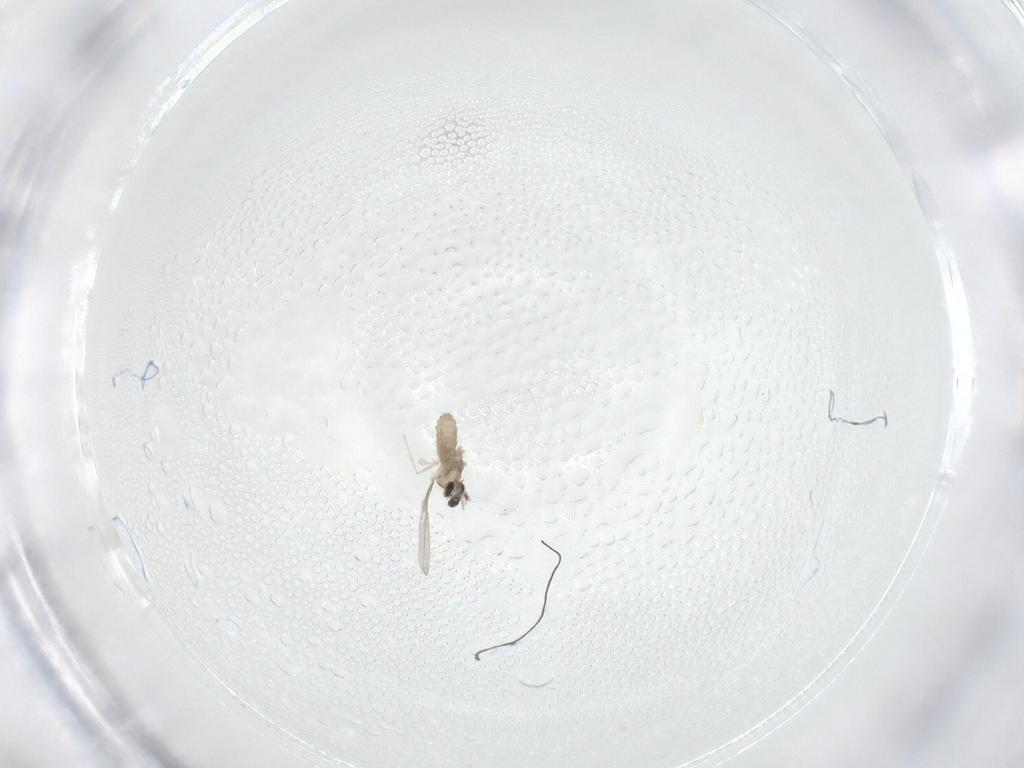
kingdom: Animalia
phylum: Arthropoda
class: Insecta
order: Diptera
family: Cecidomyiidae
